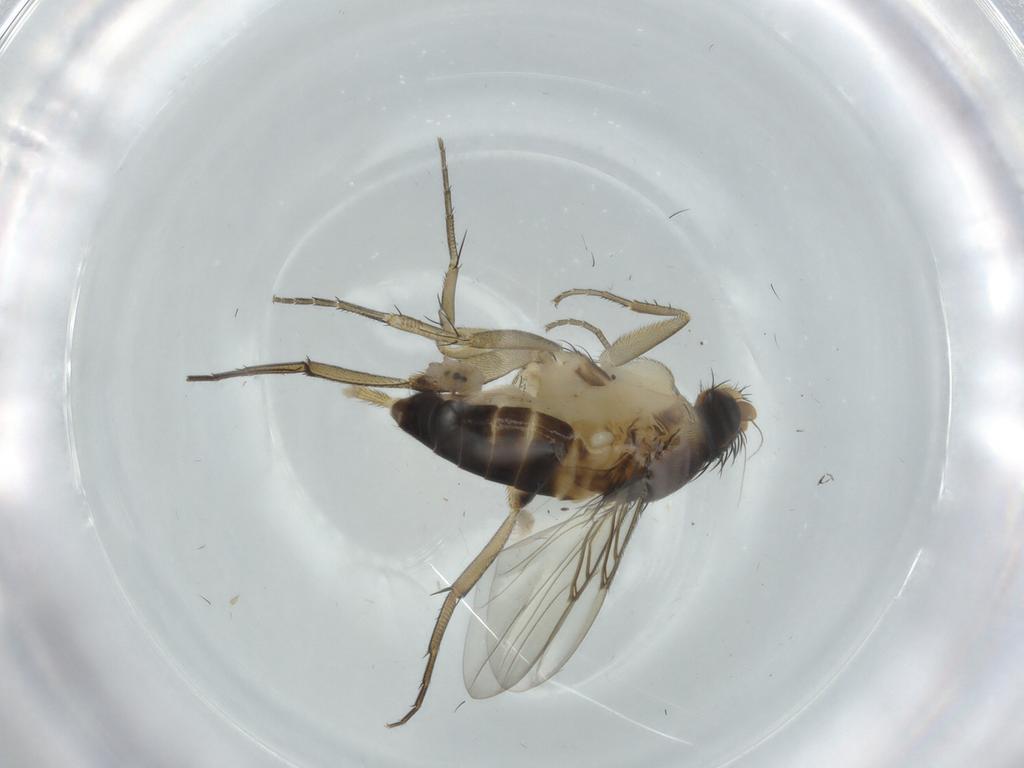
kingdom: Animalia
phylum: Arthropoda
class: Insecta
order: Diptera
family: Phoridae
